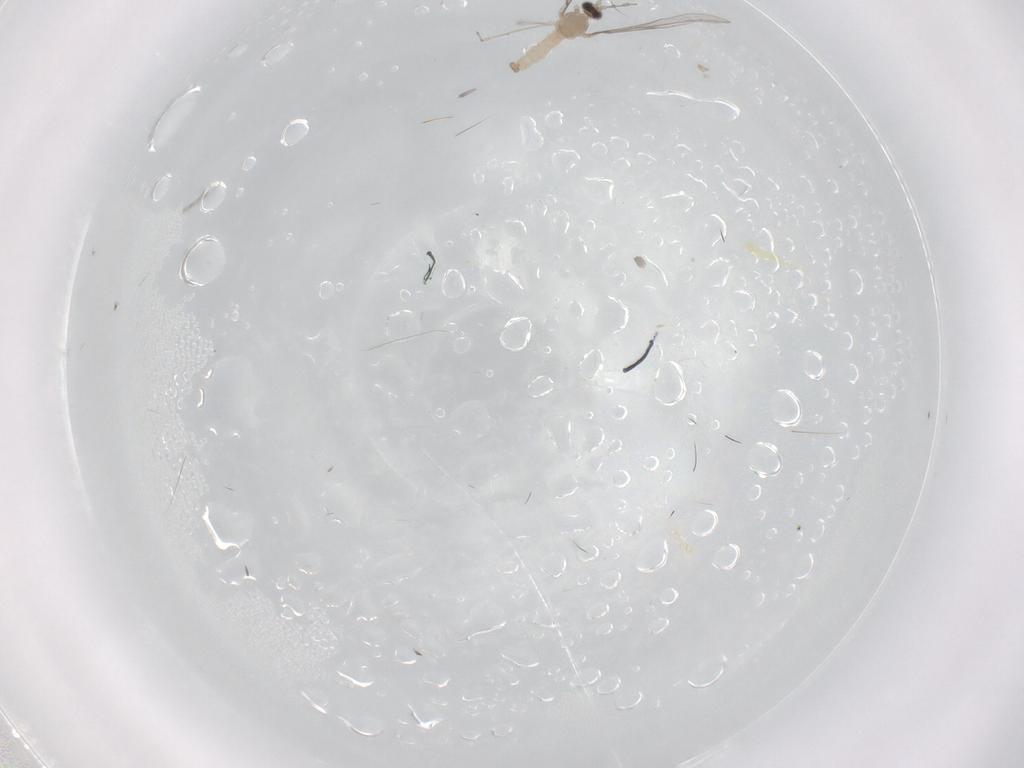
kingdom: Animalia
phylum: Arthropoda
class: Insecta
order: Diptera
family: Cecidomyiidae
